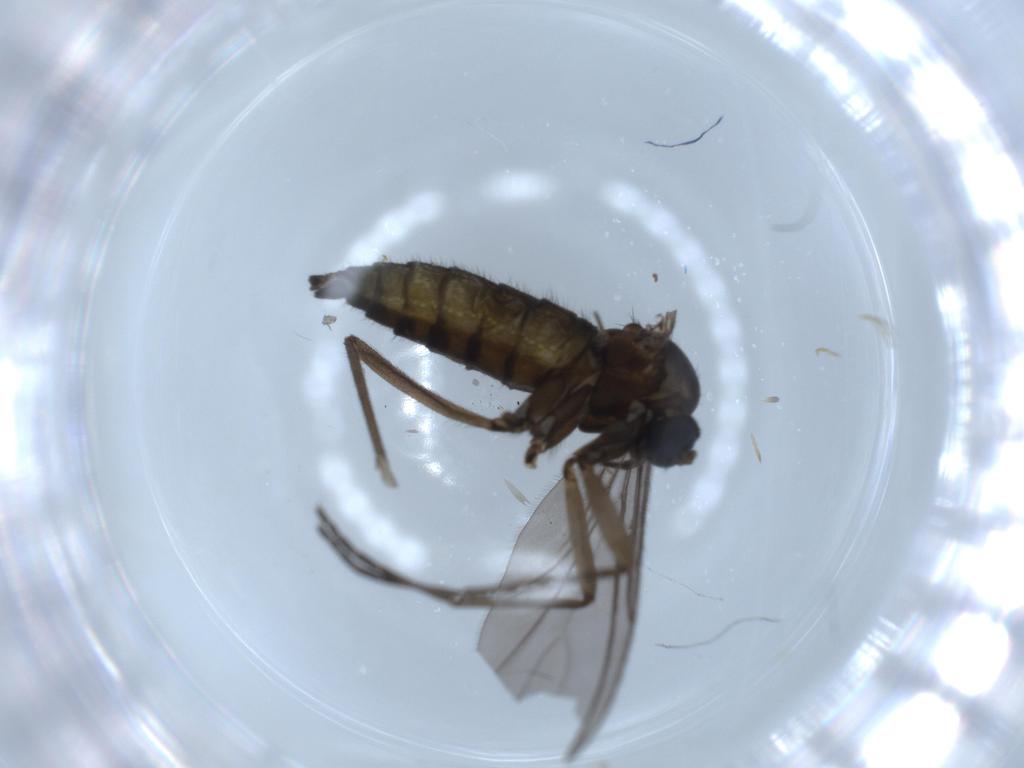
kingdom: Animalia
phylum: Arthropoda
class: Insecta
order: Diptera
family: Sciaridae
